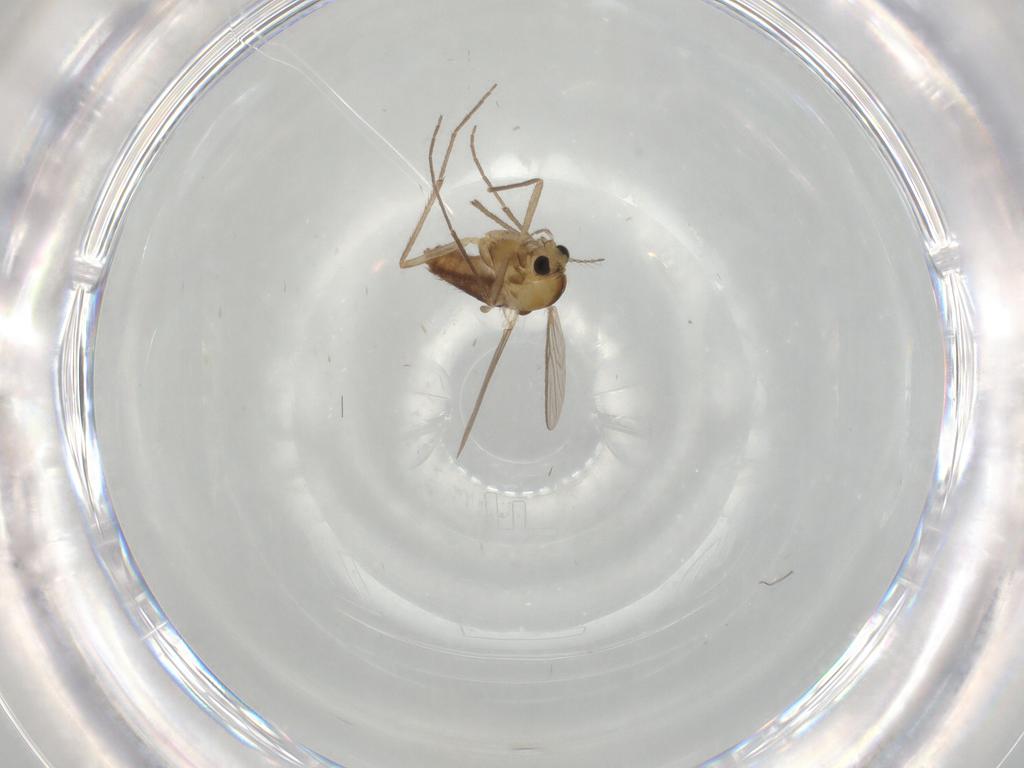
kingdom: Animalia
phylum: Arthropoda
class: Insecta
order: Diptera
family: Chironomidae
